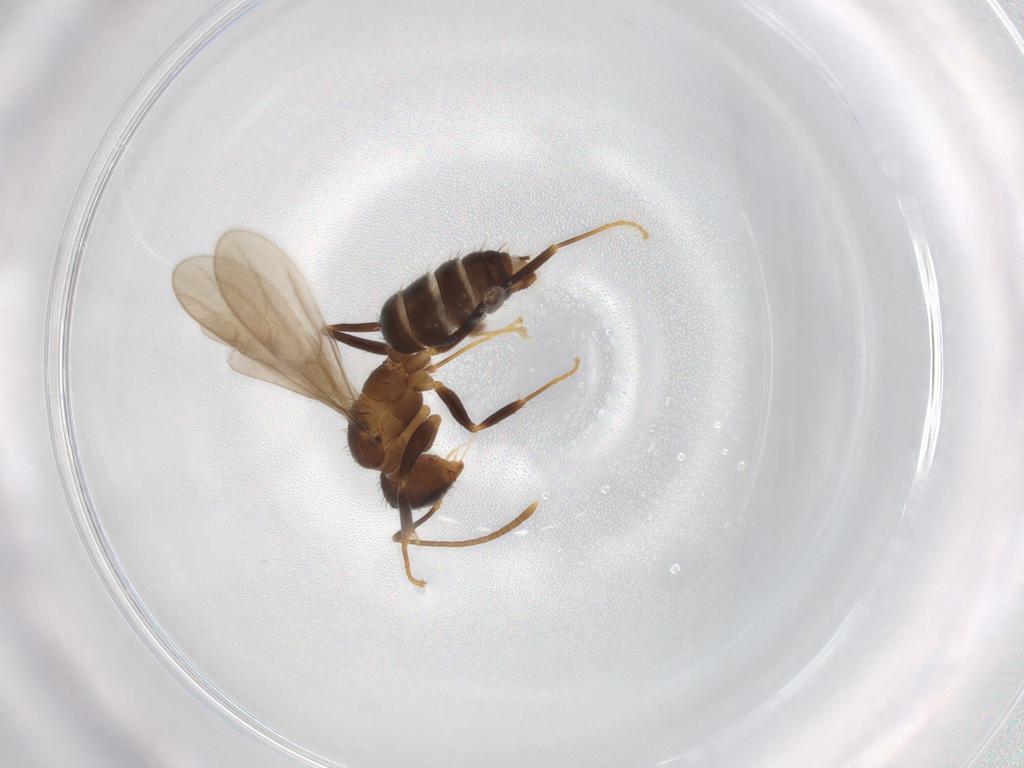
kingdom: Animalia
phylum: Arthropoda
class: Insecta
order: Hymenoptera
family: Formicidae
